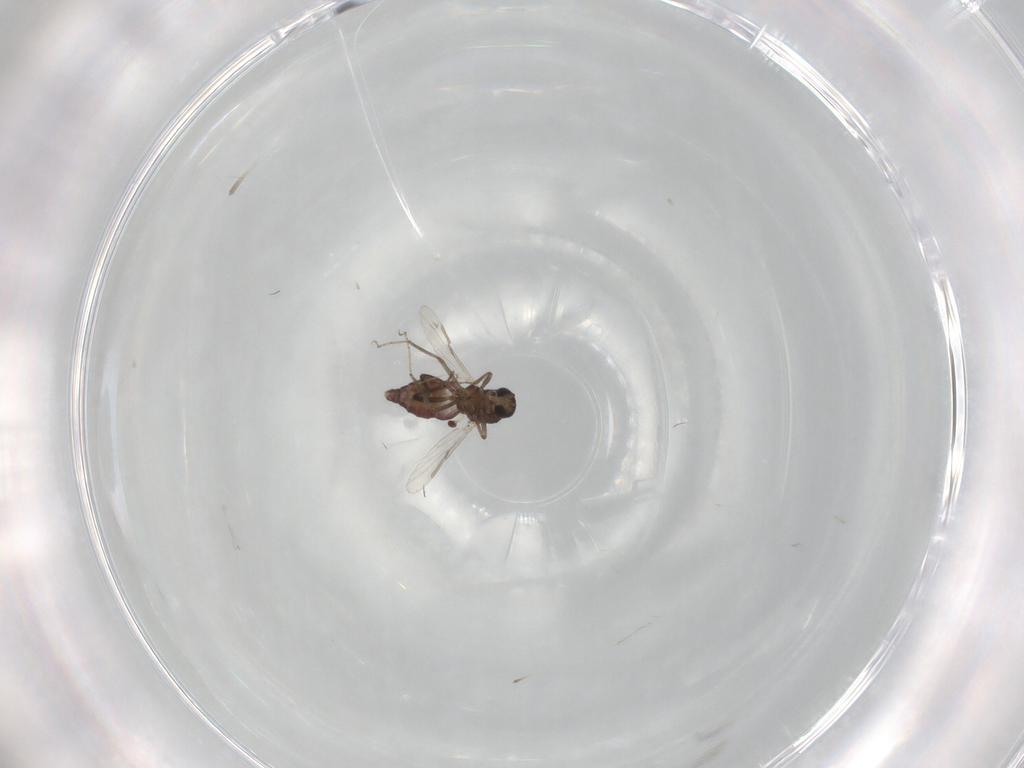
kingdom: Animalia
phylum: Arthropoda
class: Insecta
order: Diptera
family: Ceratopogonidae
